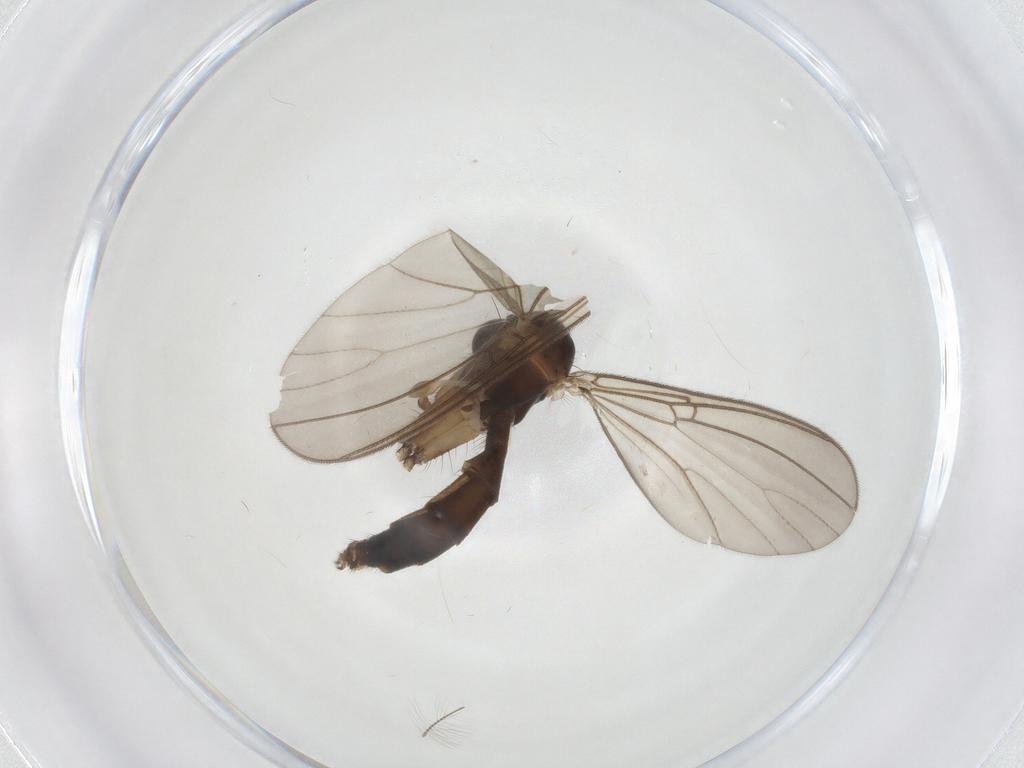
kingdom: Animalia
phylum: Arthropoda
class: Insecta
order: Diptera
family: Mycetophilidae
